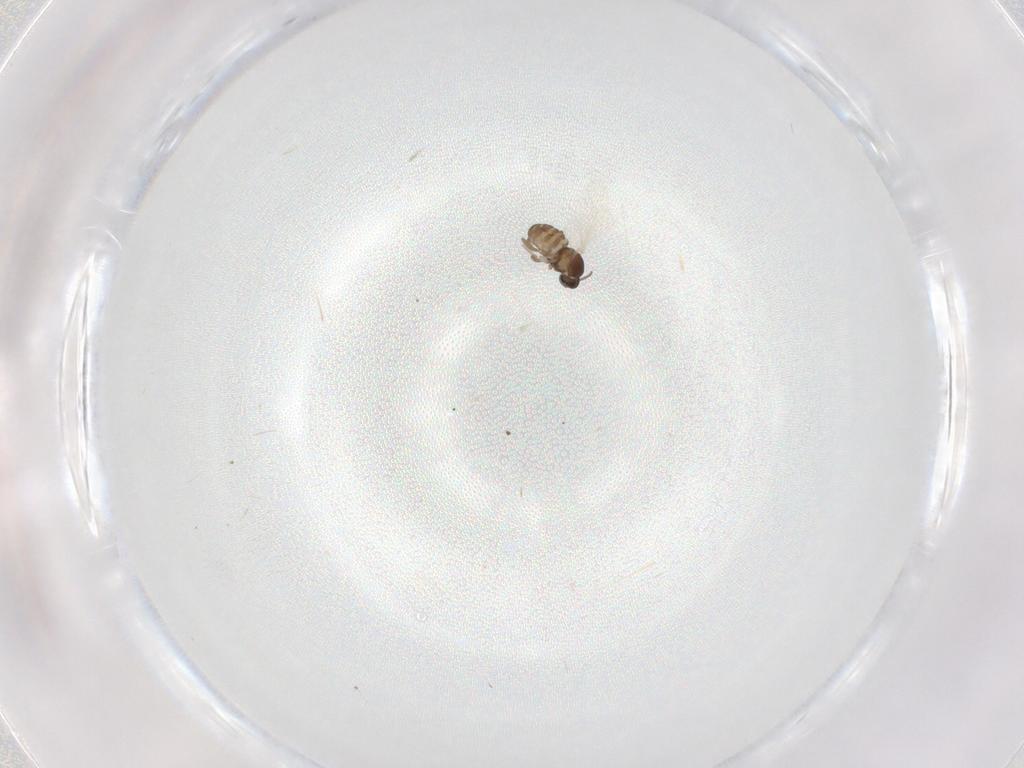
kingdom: Animalia
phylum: Arthropoda
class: Insecta
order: Diptera
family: Cecidomyiidae
